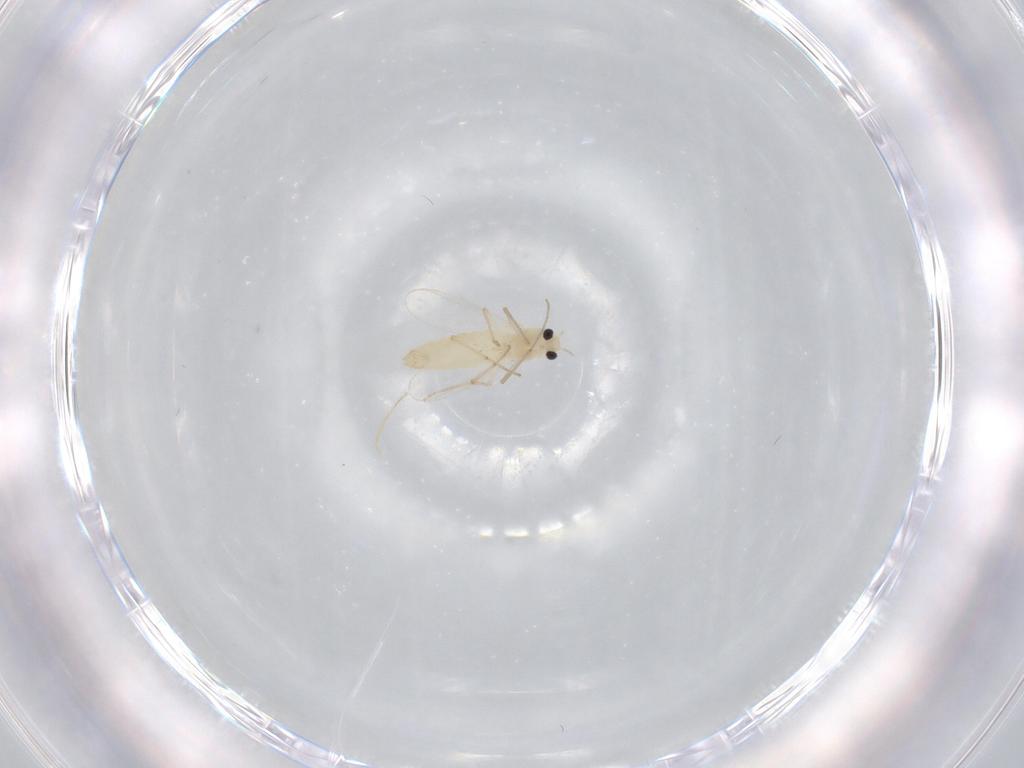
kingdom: Animalia
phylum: Arthropoda
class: Insecta
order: Diptera
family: Chironomidae
